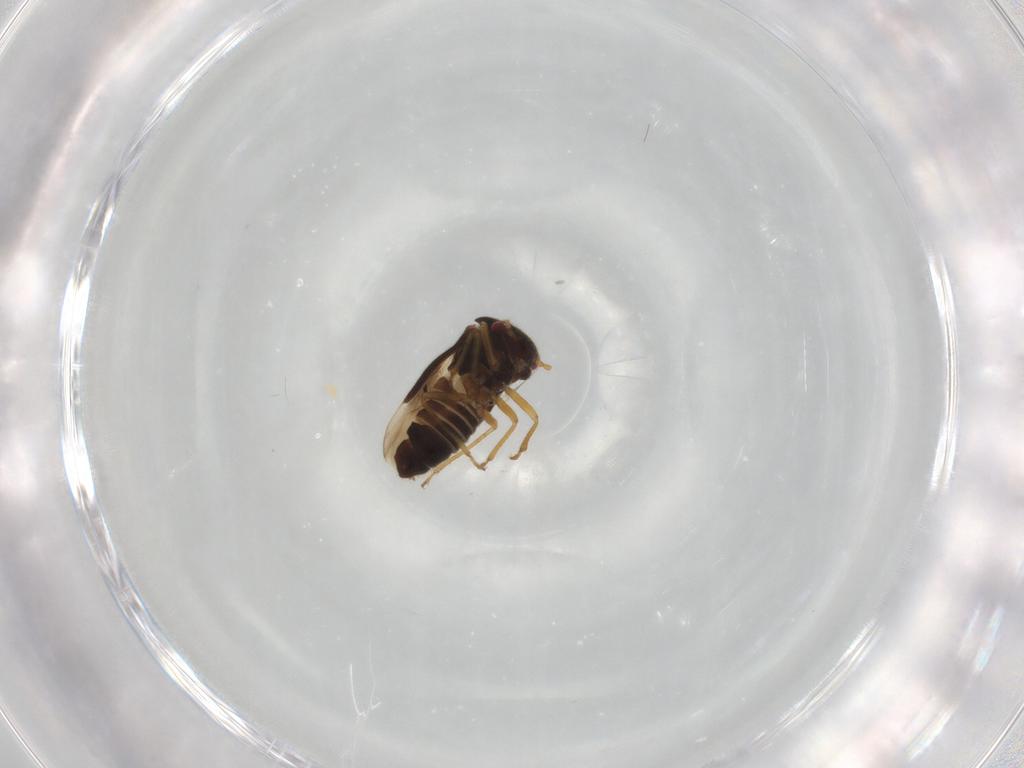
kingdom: Animalia
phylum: Arthropoda
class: Insecta
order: Hemiptera
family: Schizopteridae
